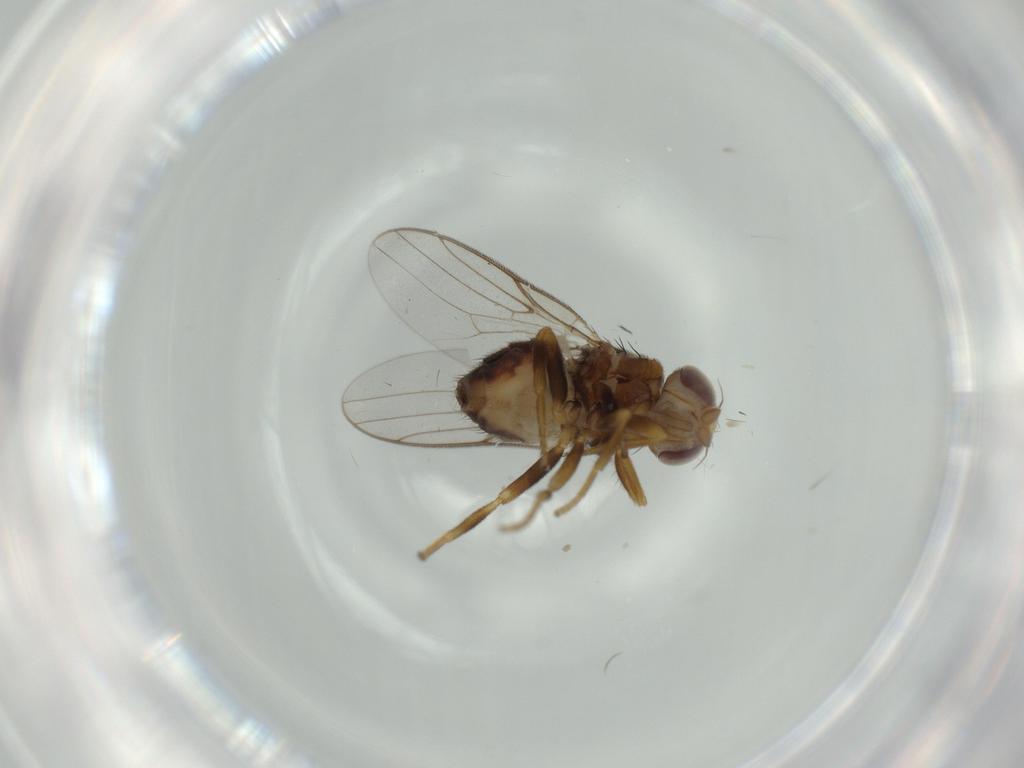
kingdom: Animalia
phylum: Arthropoda
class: Insecta
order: Diptera
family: Chloropidae
